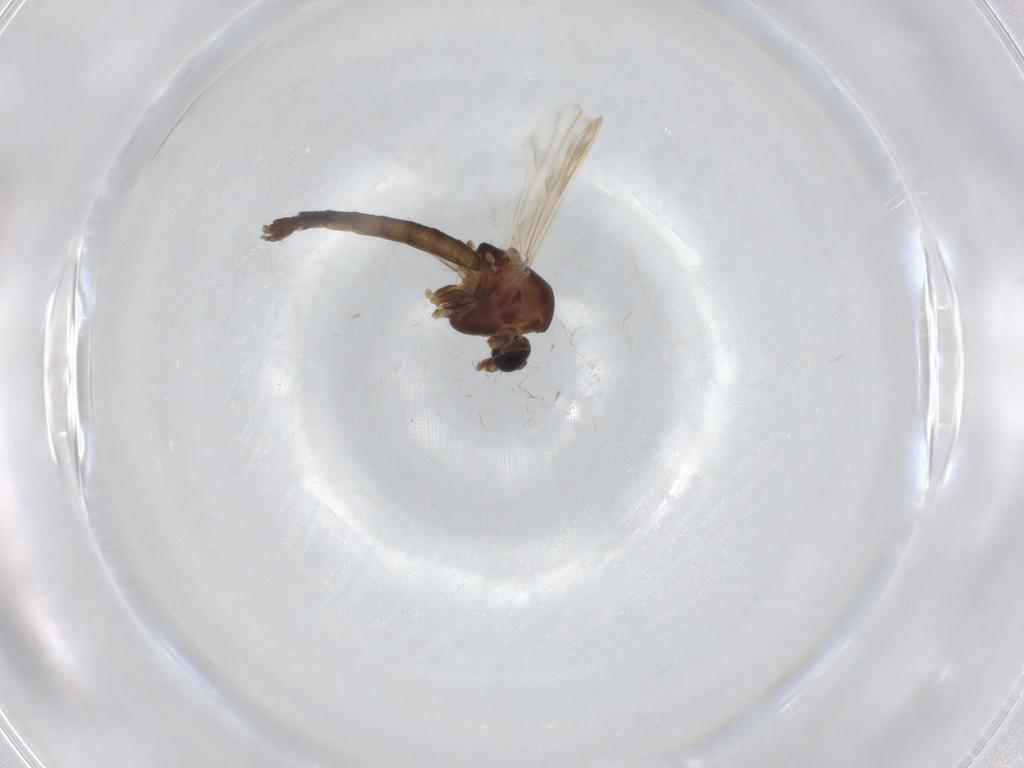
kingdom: Animalia
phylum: Arthropoda
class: Insecta
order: Diptera
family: Chironomidae
